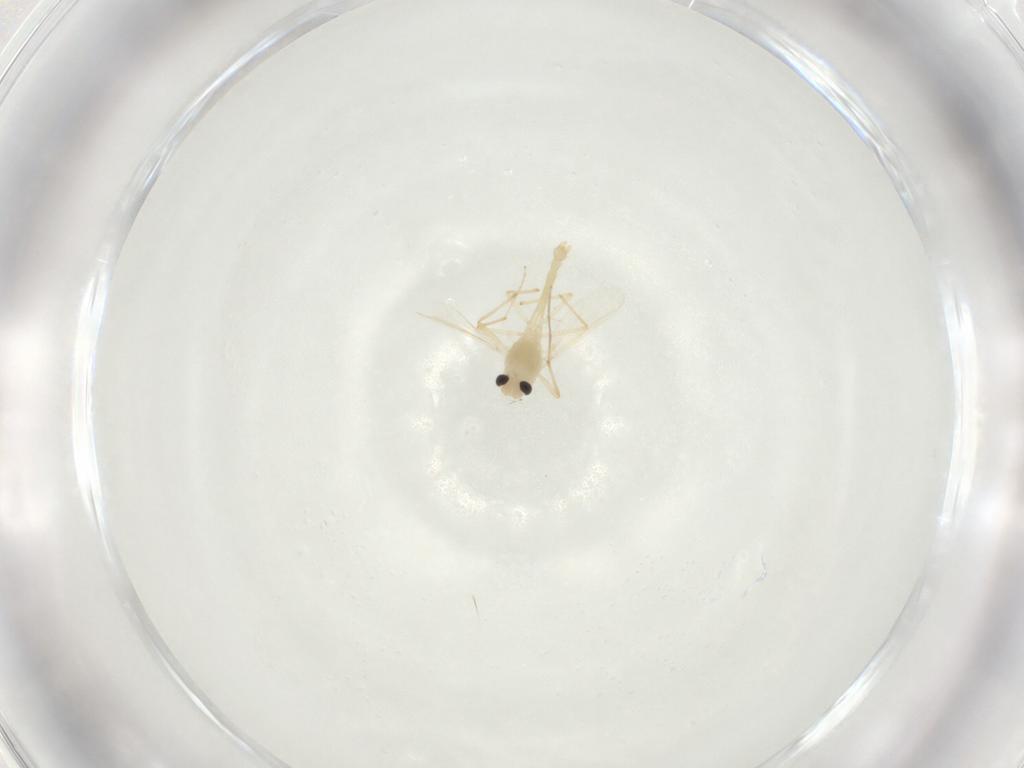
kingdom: Animalia
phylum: Arthropoda
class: Insecta
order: Diptera
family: Chironomidae
